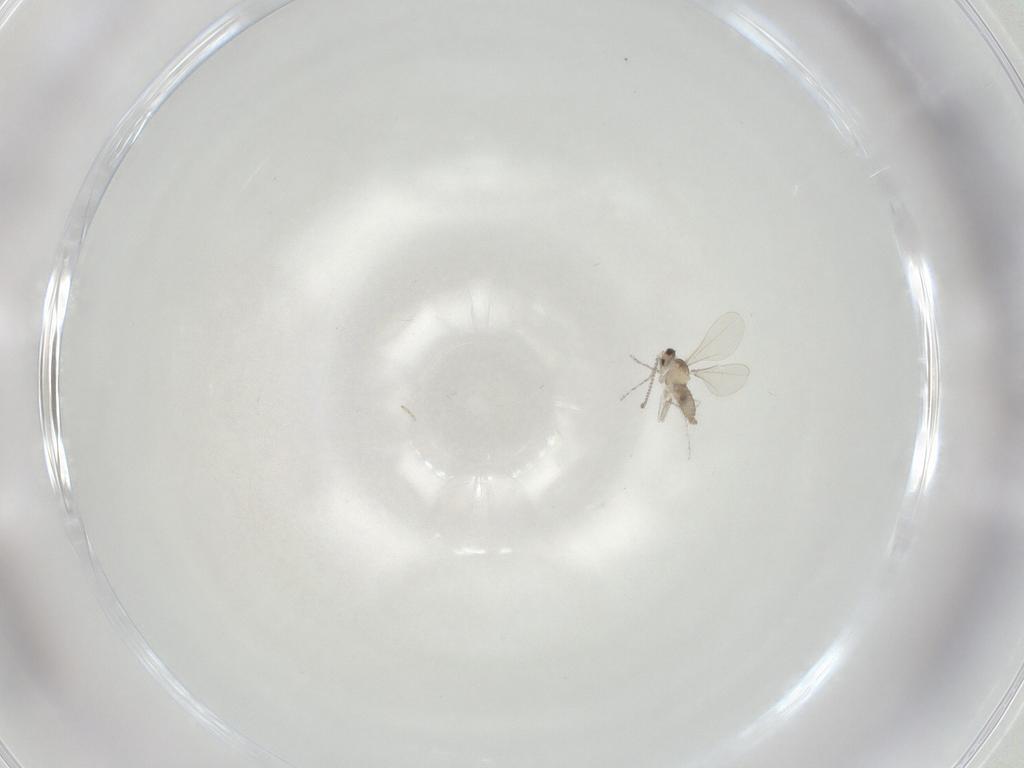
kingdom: Animalia
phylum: Arthropoda
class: Insecta
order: Diptera
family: Cecidomyiidae
